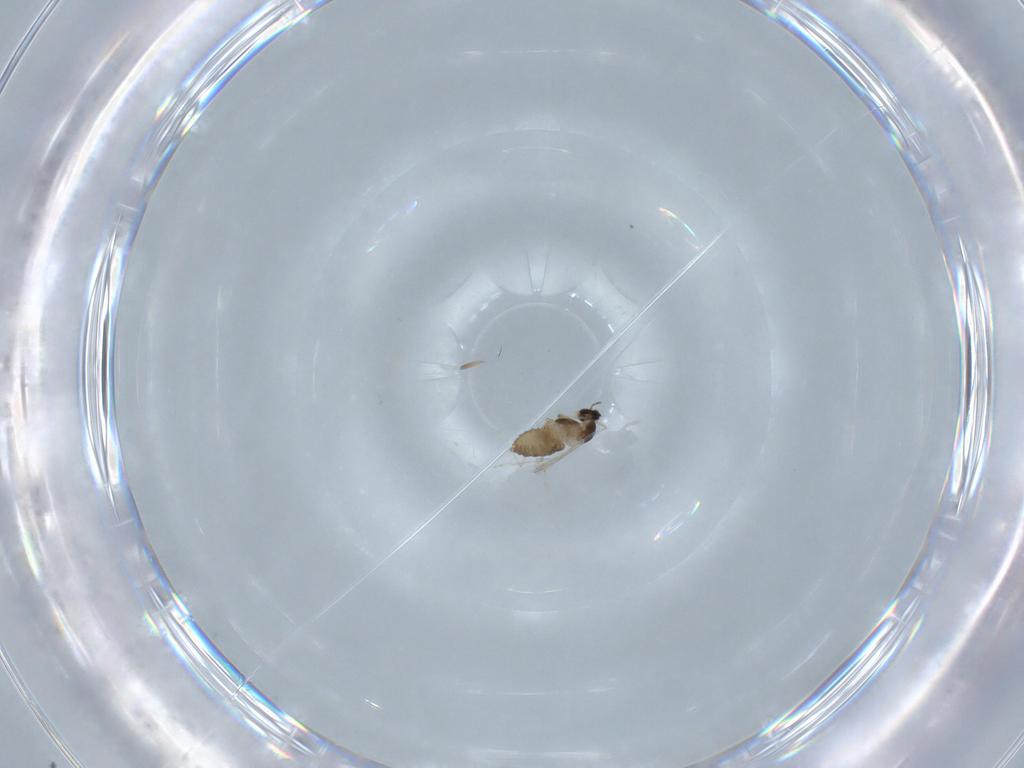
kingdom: Animalia
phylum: Arthropoda
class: Insecta
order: Diptera
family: Cecidomyiidae
